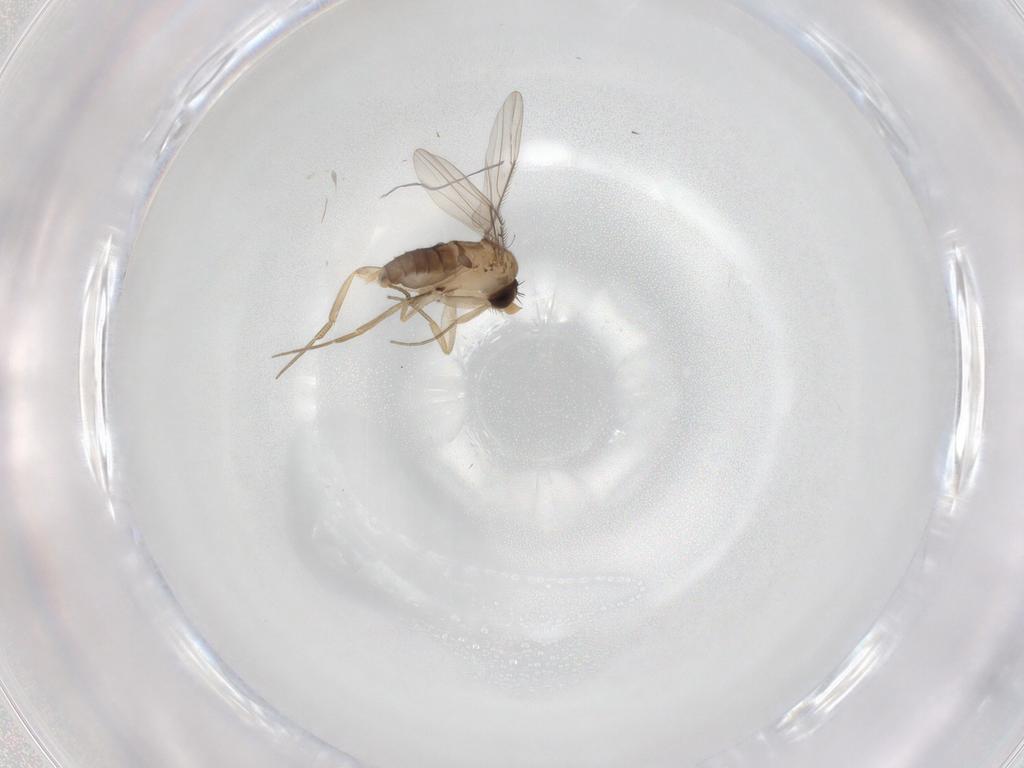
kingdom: Animalia
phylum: Arthropoda
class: Insecta
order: Diptera
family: Phoridae
